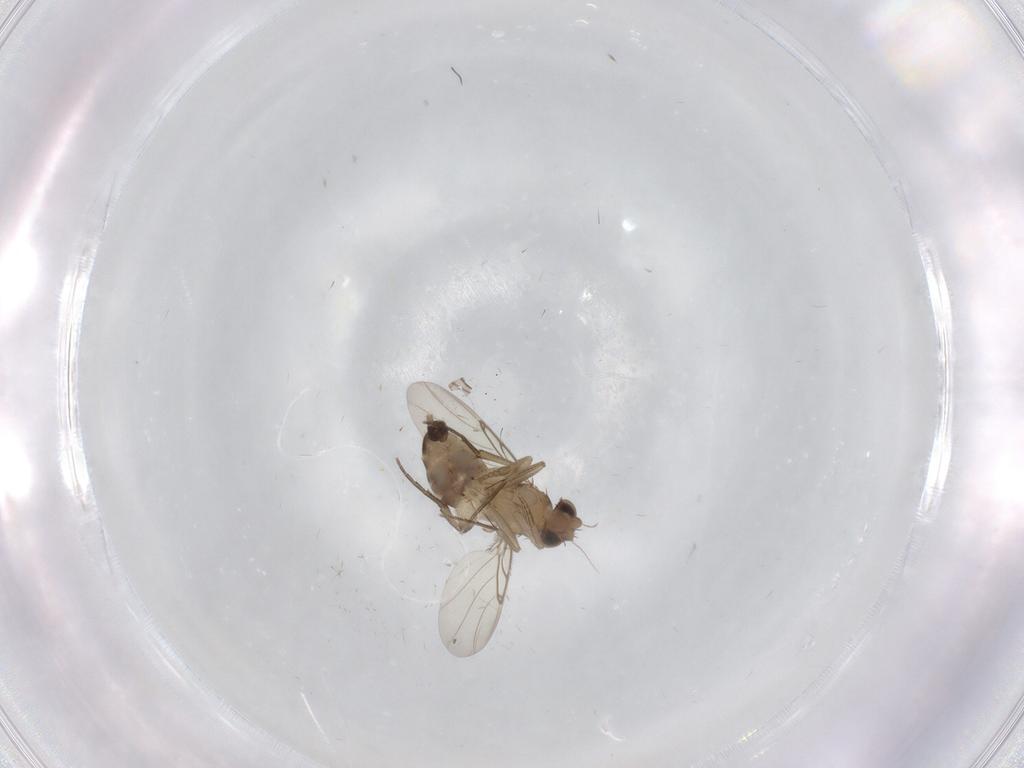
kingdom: Animalia
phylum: Arthropoda
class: Insecta
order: Diptera
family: Phoridae
